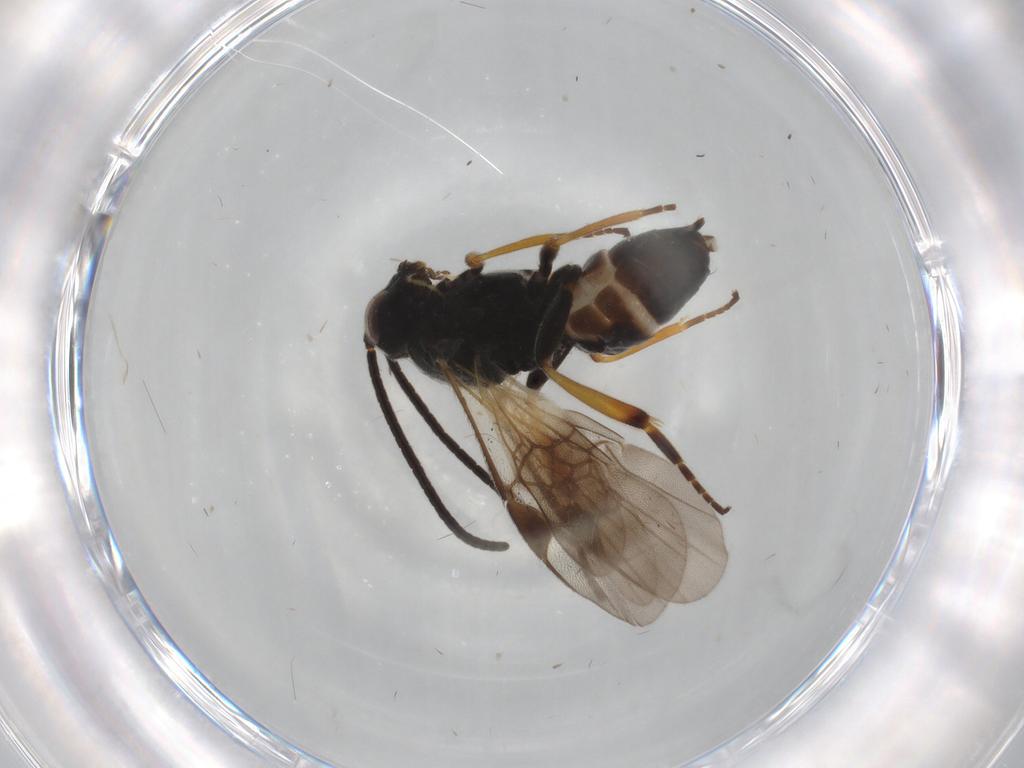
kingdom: Animalia
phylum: Arthropoda
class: Insecta
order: Hymenoptera
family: Braconidae
